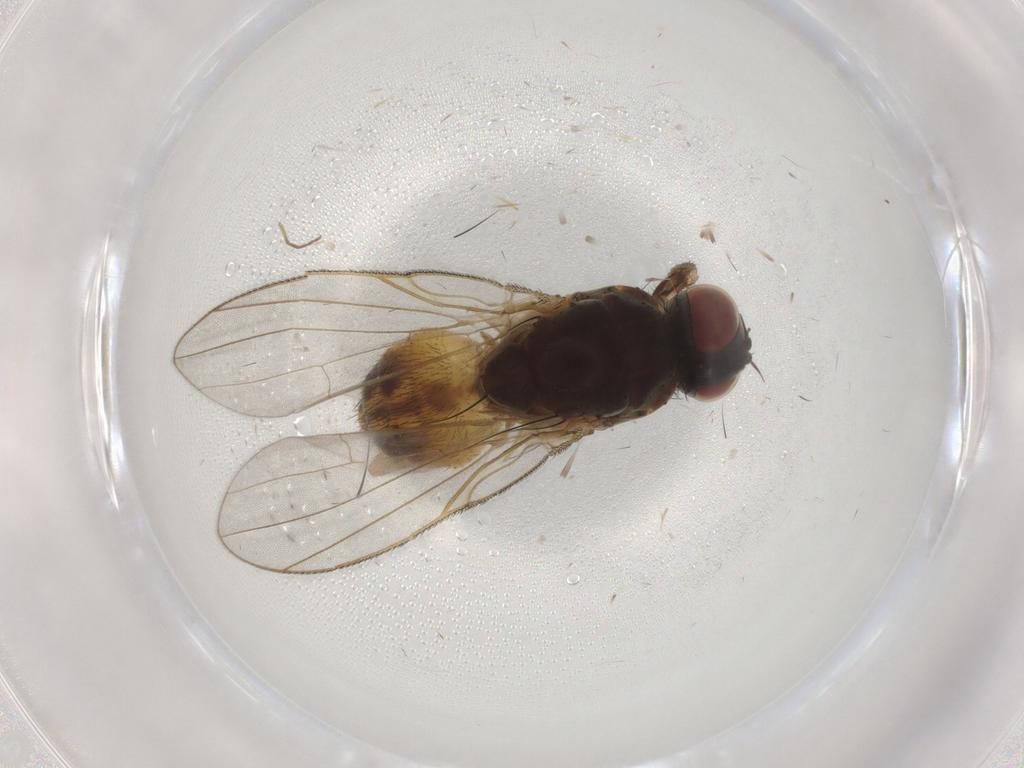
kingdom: Animalia
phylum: Arthropoda
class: Insecta
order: Diptera
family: Muscidae
